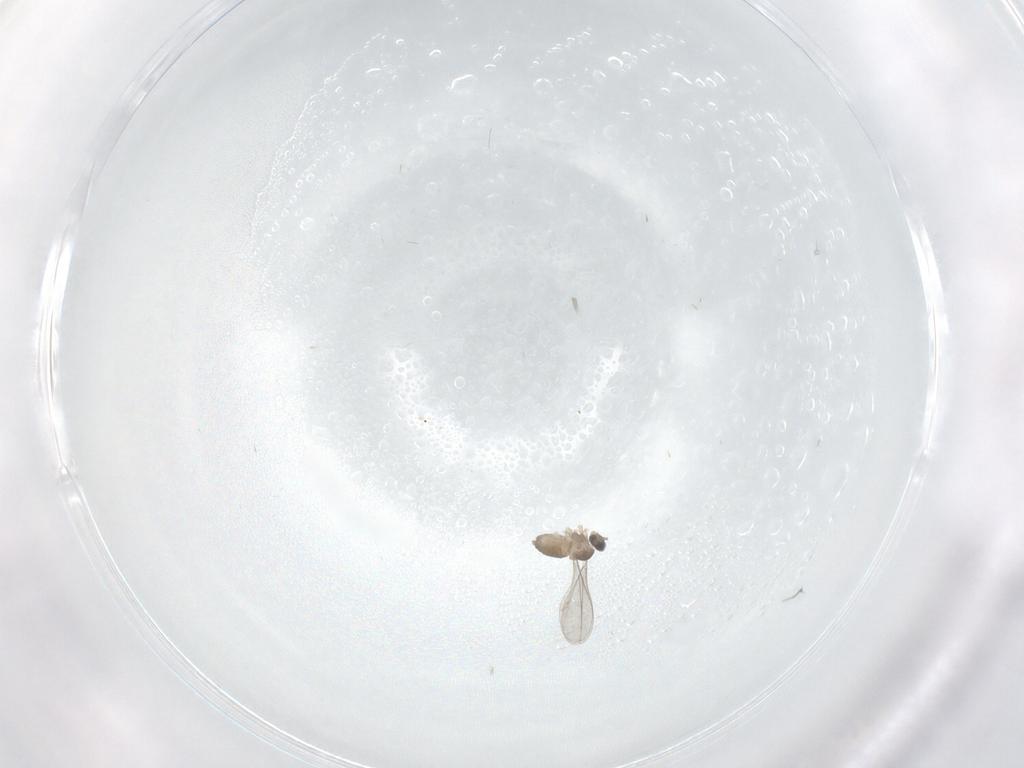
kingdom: Animalia
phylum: Arthropoda
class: Insecta
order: Diptera
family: Cecidomyiidae
